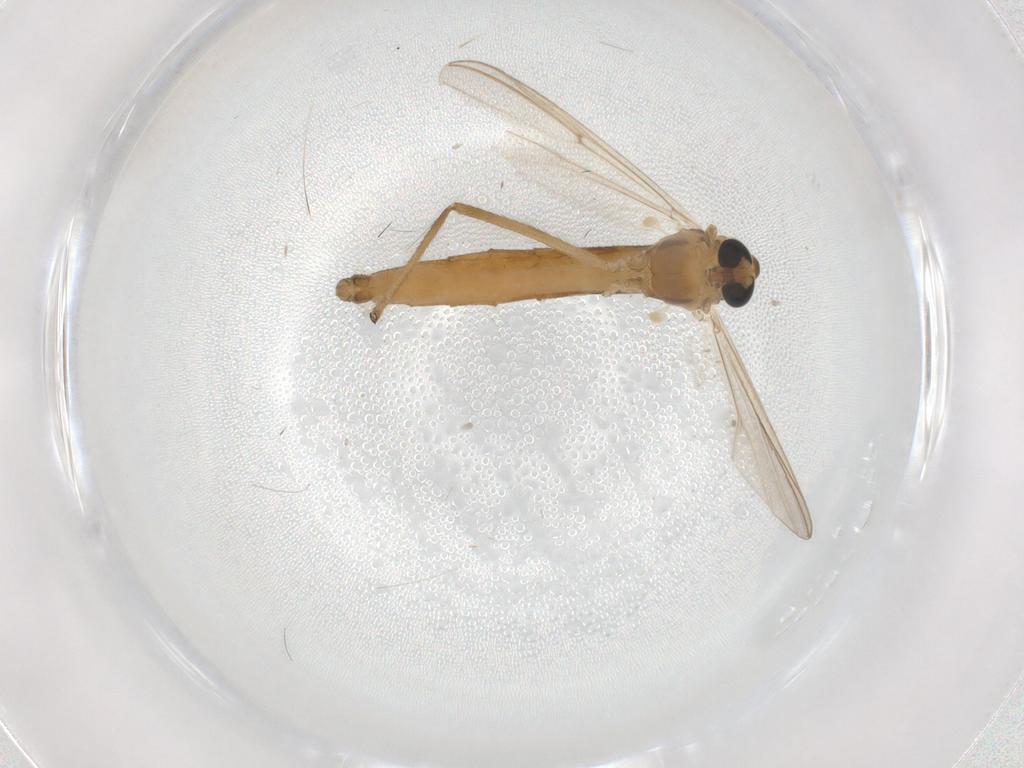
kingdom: Animalia
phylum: Arthropoda
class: Insecta
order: Diptera
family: Chironomidae
